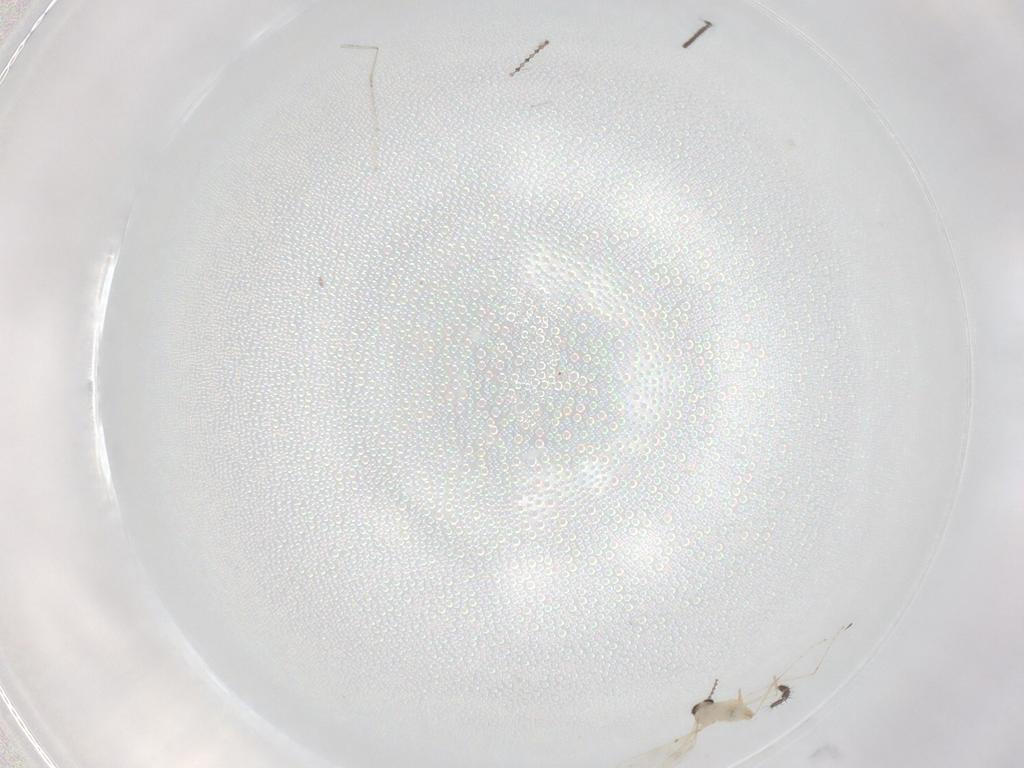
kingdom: Animalia
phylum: Arthropoda
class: Insecta
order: Diptera
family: Cecidomyiidae
